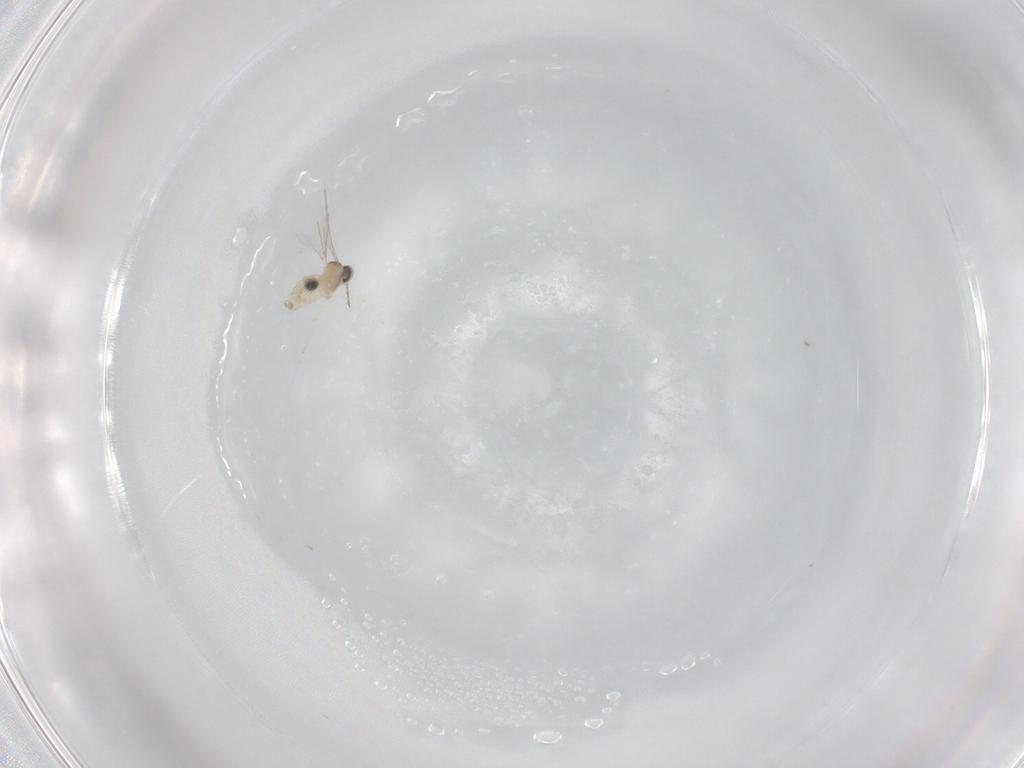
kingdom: Animalia
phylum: Arthropoda
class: Insecta
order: Diptera
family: Cecidomyiidae
